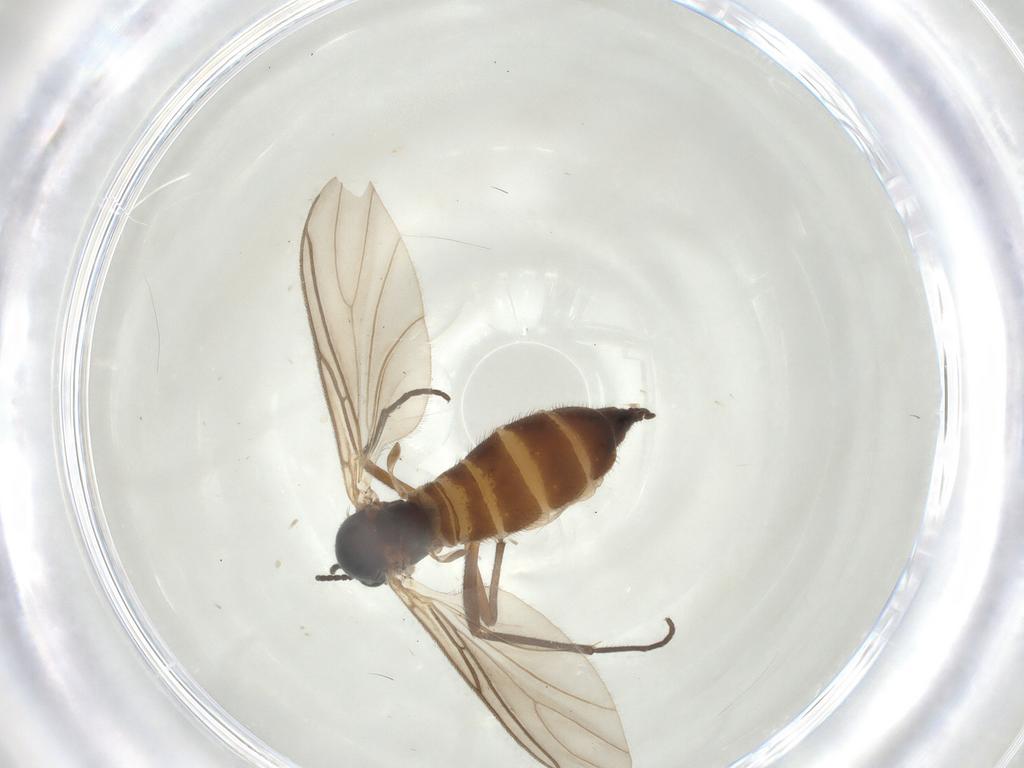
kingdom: Animalia
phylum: Arthropoda
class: Insecta
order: Diptera
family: Sciaridae
